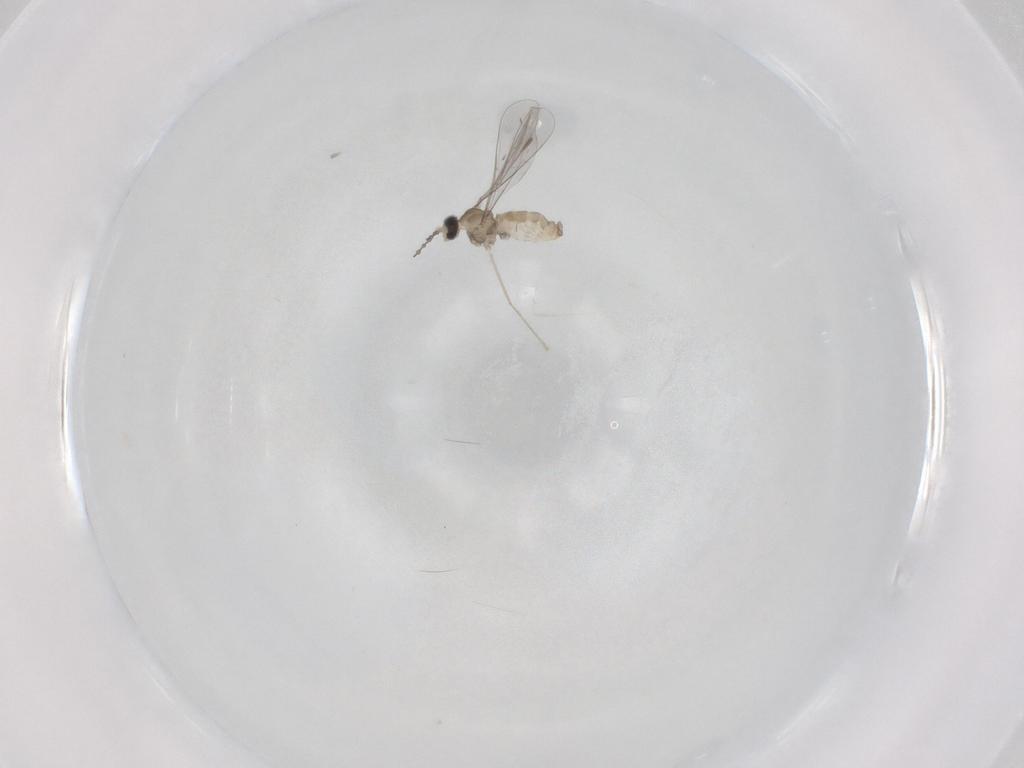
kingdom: Animalia
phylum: Arthropoda
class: Insecta
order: Diptera
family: Cecidomyiidae
